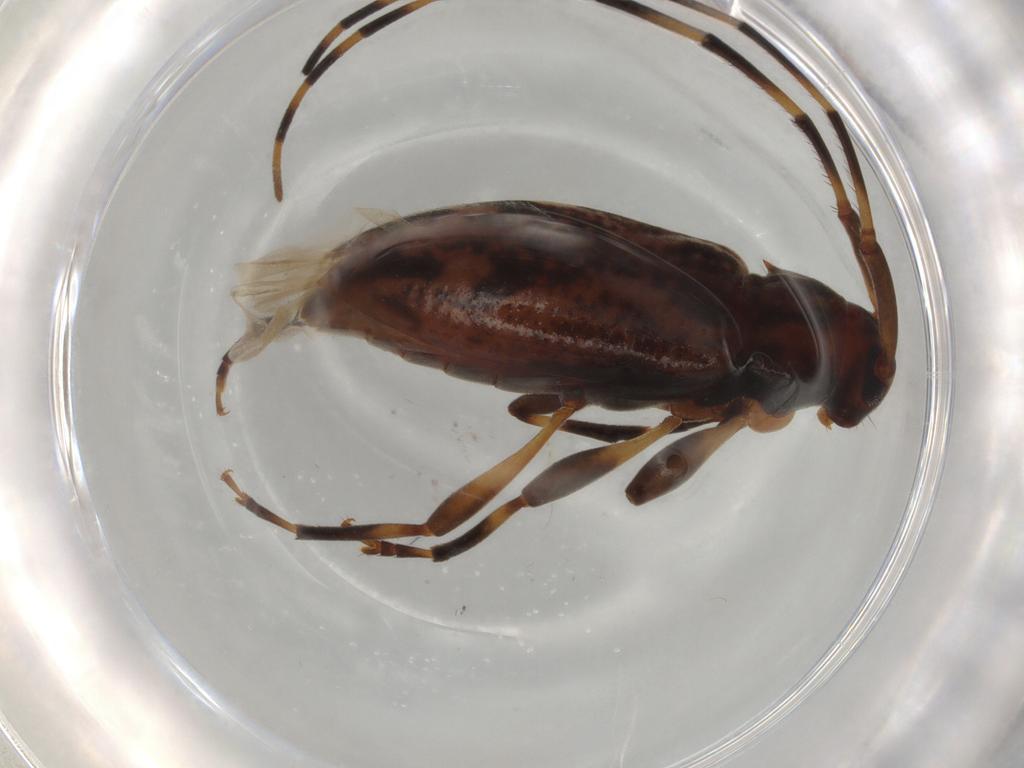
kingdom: Animalia
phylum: Arthropoda
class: Insecta
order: Coleoptera
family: Cerambycidae
